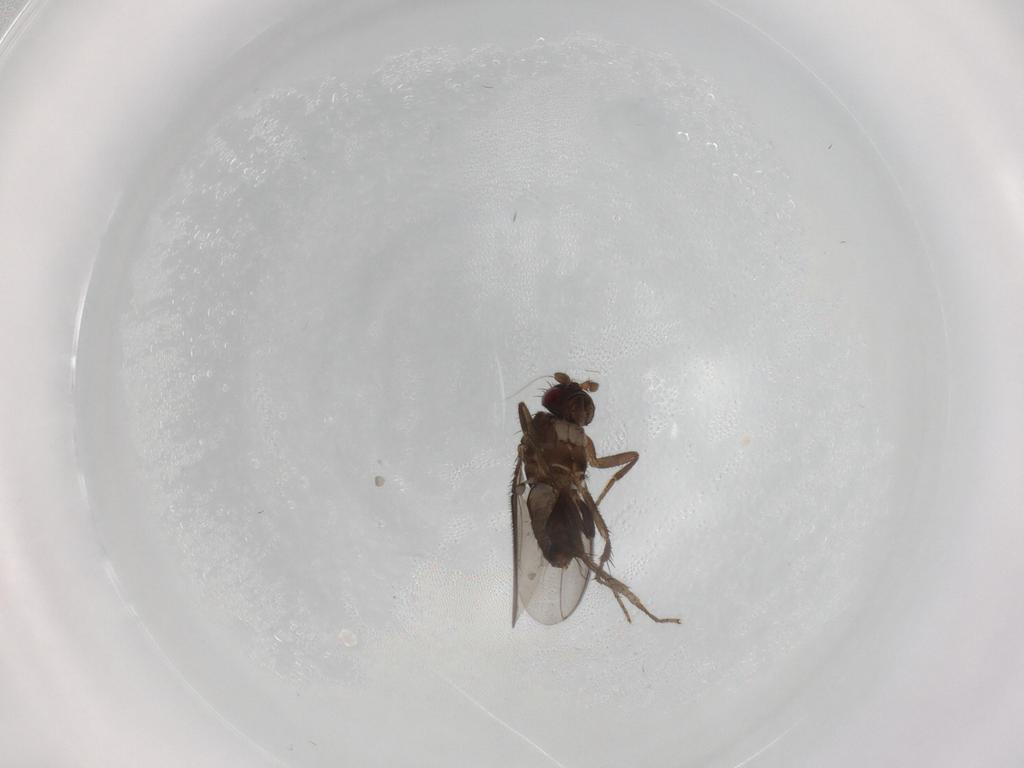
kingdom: Animalia
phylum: Arthropoda
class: Insecta
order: Diptera
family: Sphaeroceridae
